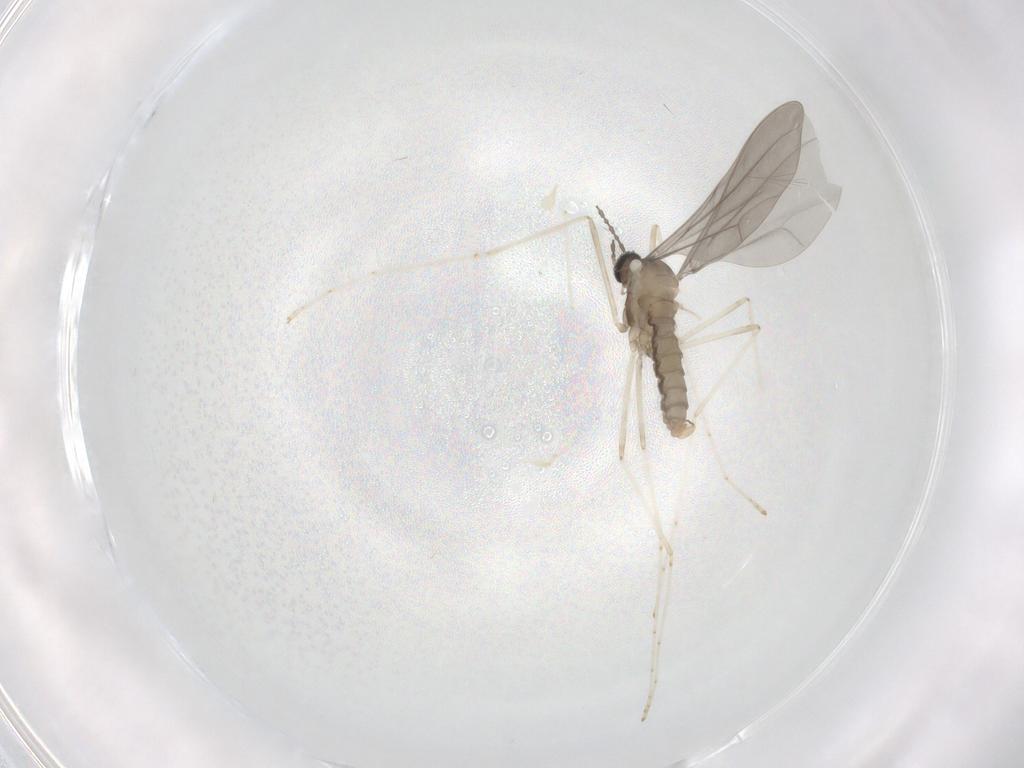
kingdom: Animalia
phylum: Arthropoda
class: Insecta
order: Diptera
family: Cecidomyiidae
